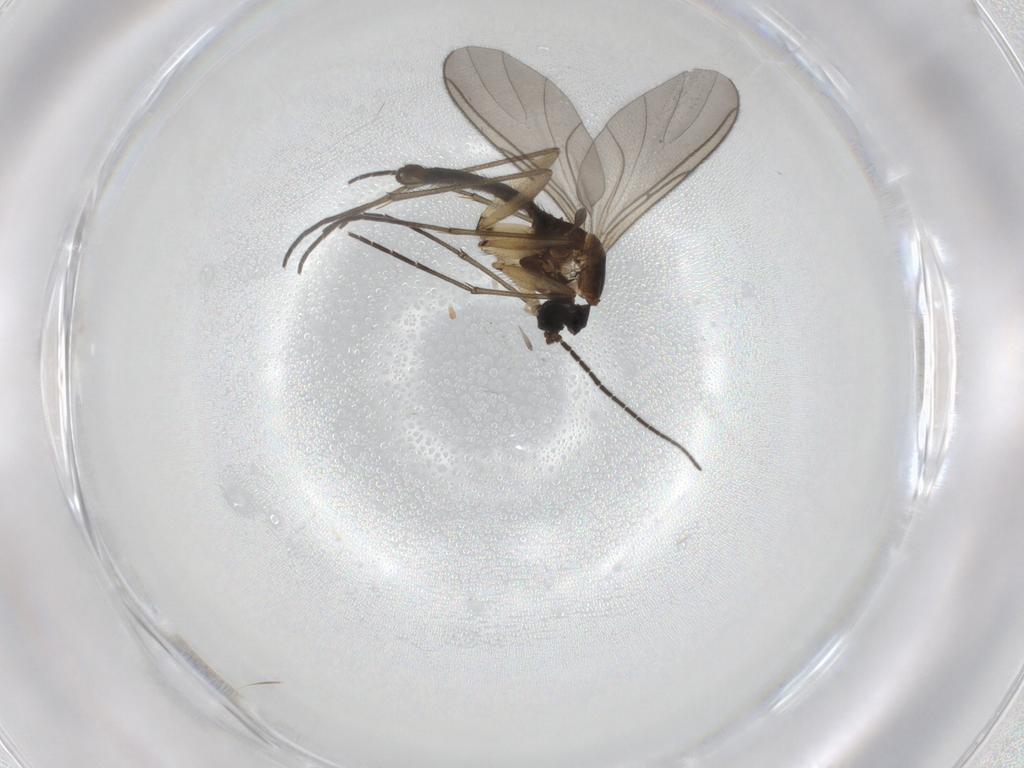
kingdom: Animalia
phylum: Arthropoda
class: Insecta
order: Diptera
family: Sciaridae
